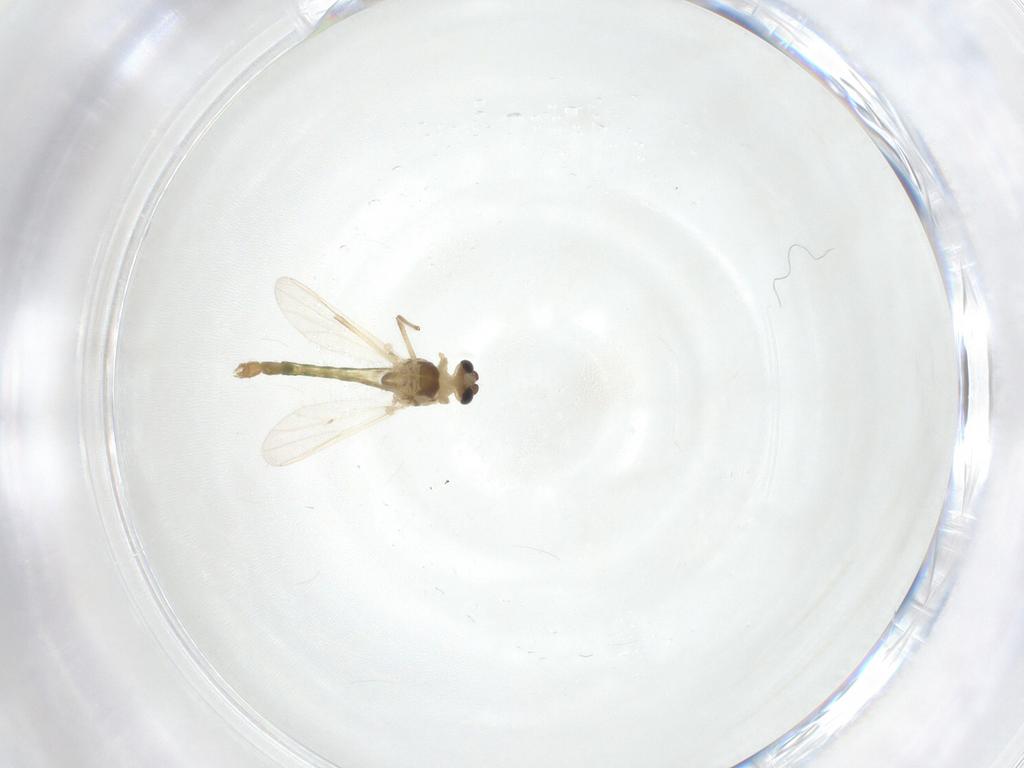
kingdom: Animalia
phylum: Arthropoda
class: Insecta
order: Diptera
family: Chironomidae
